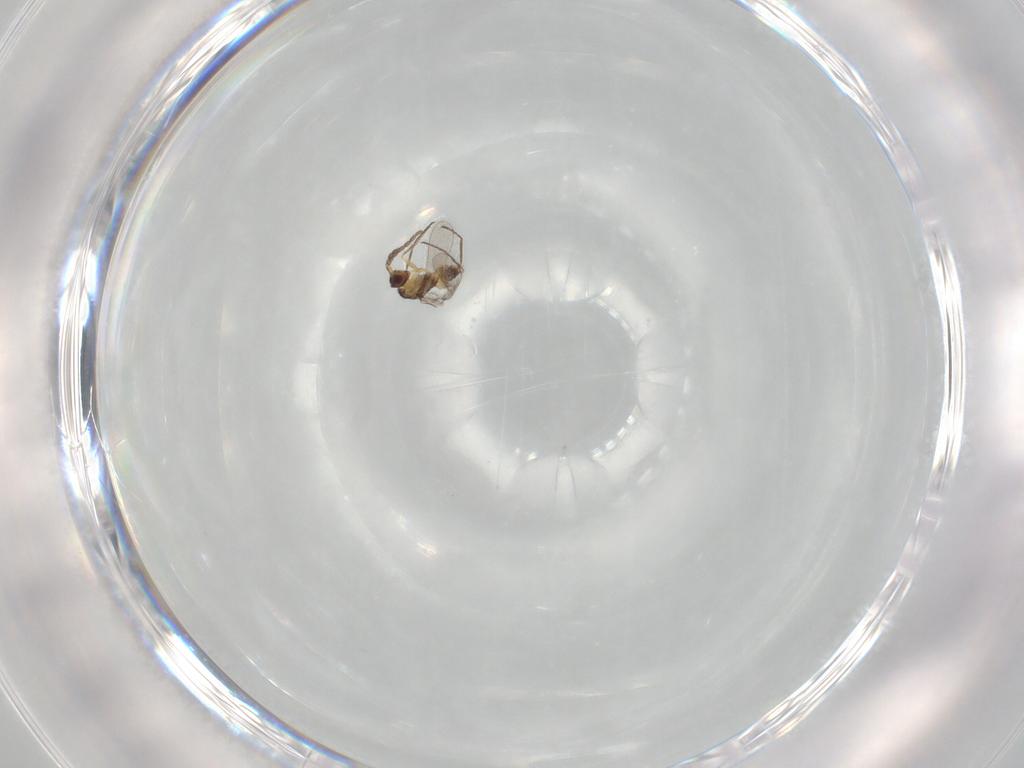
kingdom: Animalia
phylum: Arthropoda
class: Insecta
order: Hymenoptera
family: Mymaridae
